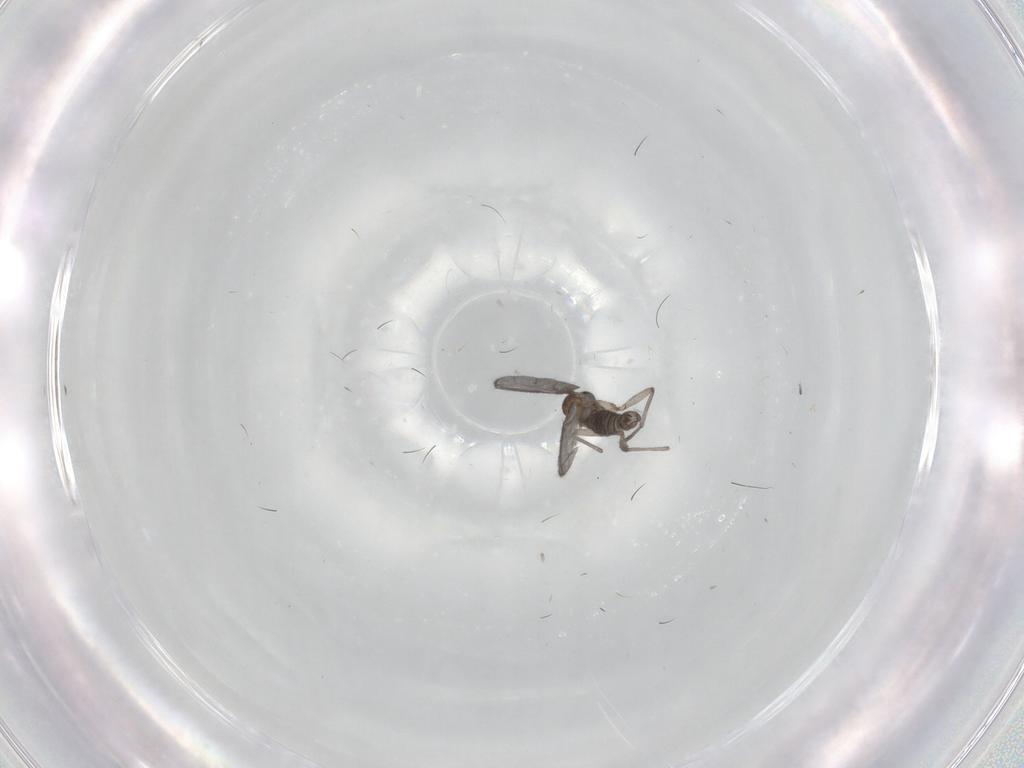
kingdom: Animalia
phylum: Arthropoda
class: Insecta
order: Diptera
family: Sciaridae
